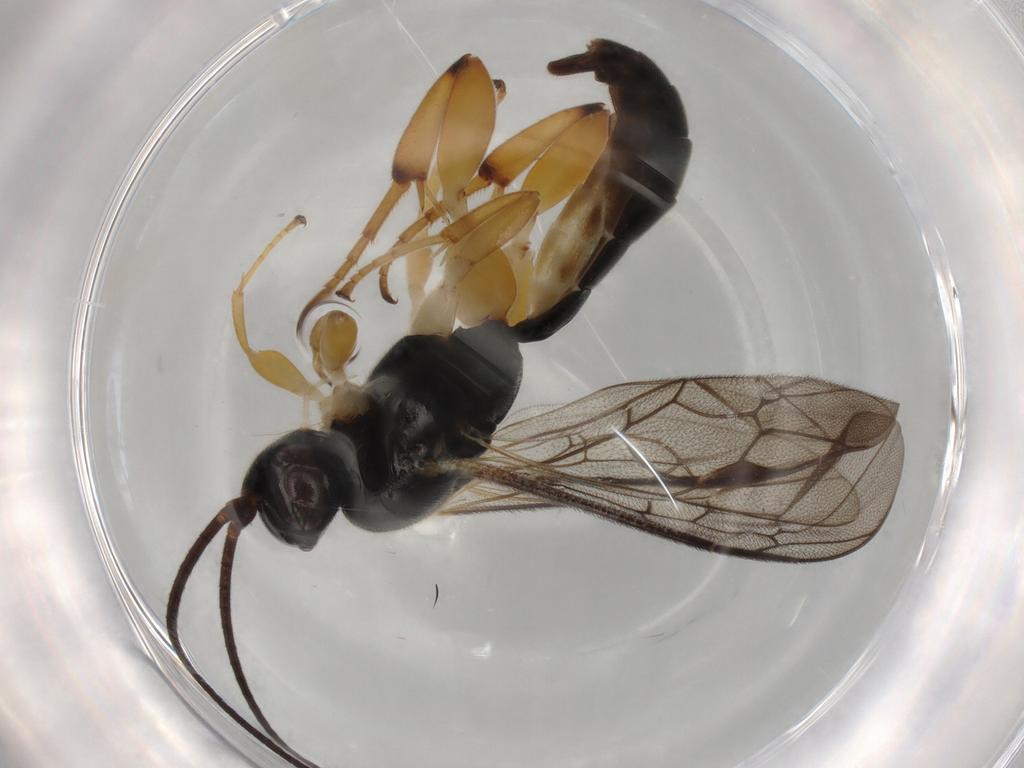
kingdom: Animalia
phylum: Arthropoda
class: Insecta
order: Hymenoptera
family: Ichneumonidae
